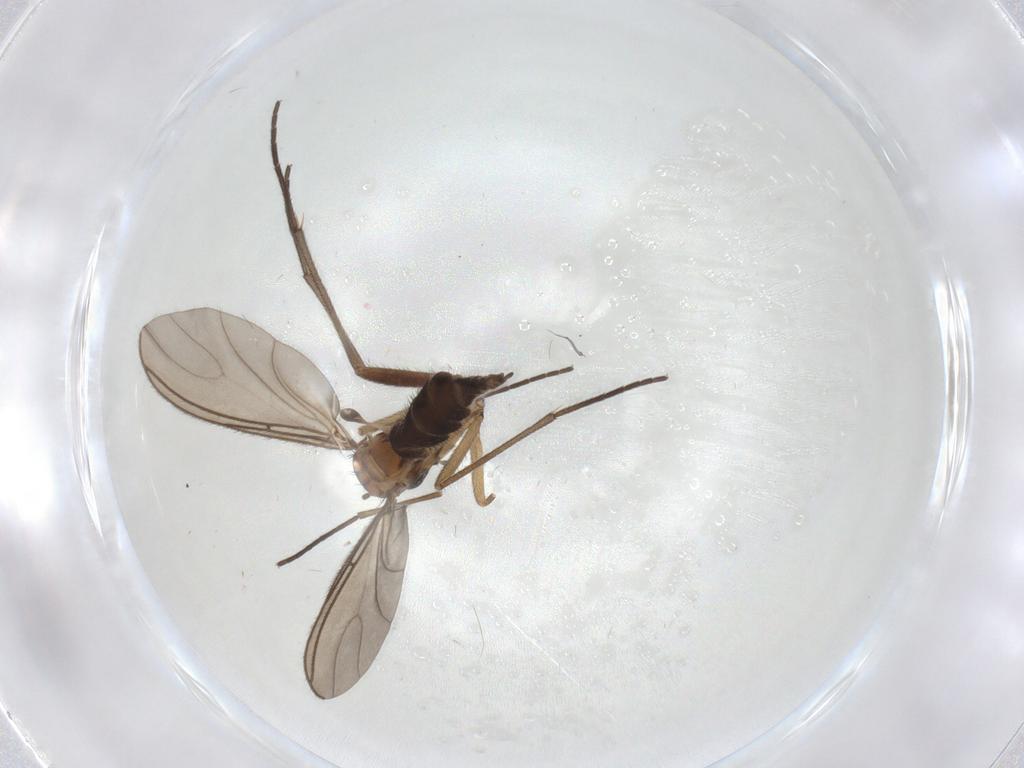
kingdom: Animalia
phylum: Arthropoda
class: Insecta
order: Diptera
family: Sciaridae
